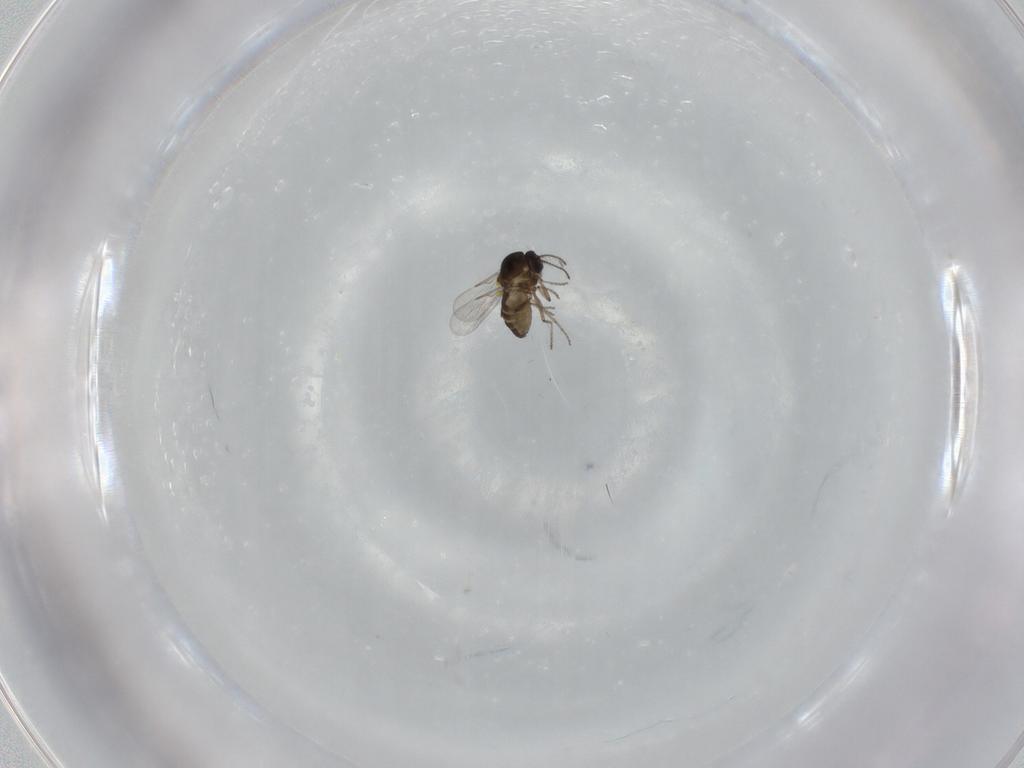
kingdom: Animalia
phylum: Arthropoda
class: Insecta
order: Diptera
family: Ceratopogonidae
